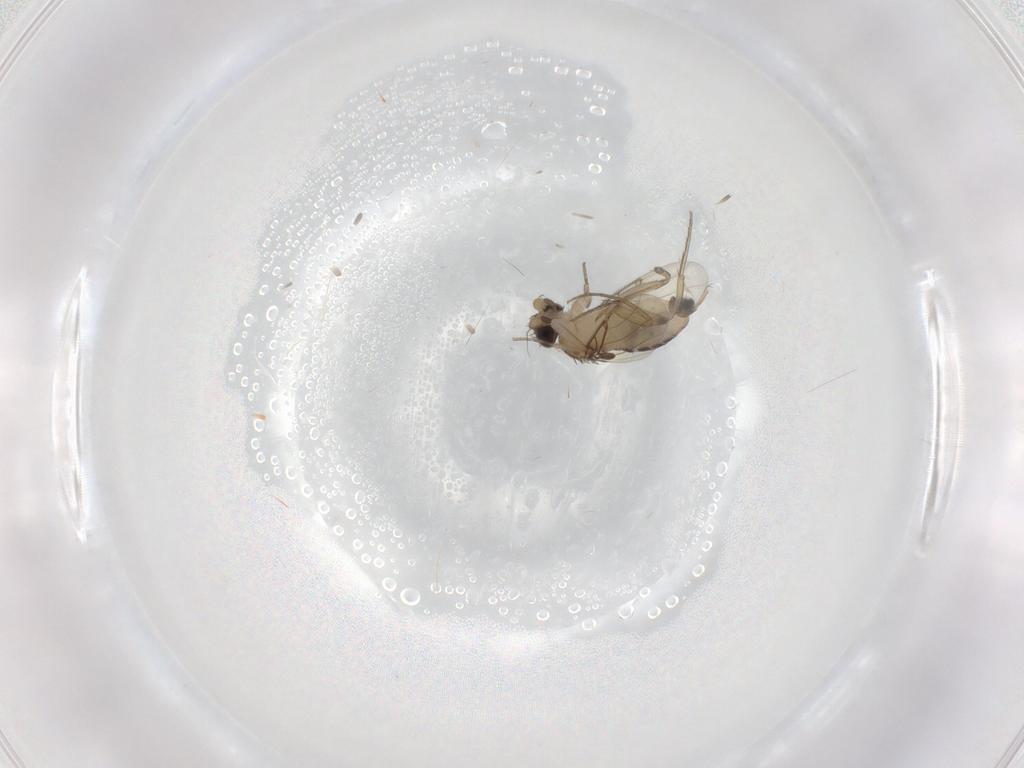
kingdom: Animalia
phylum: Arthropoda
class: Insecta
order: Diptera
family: Phoridae
